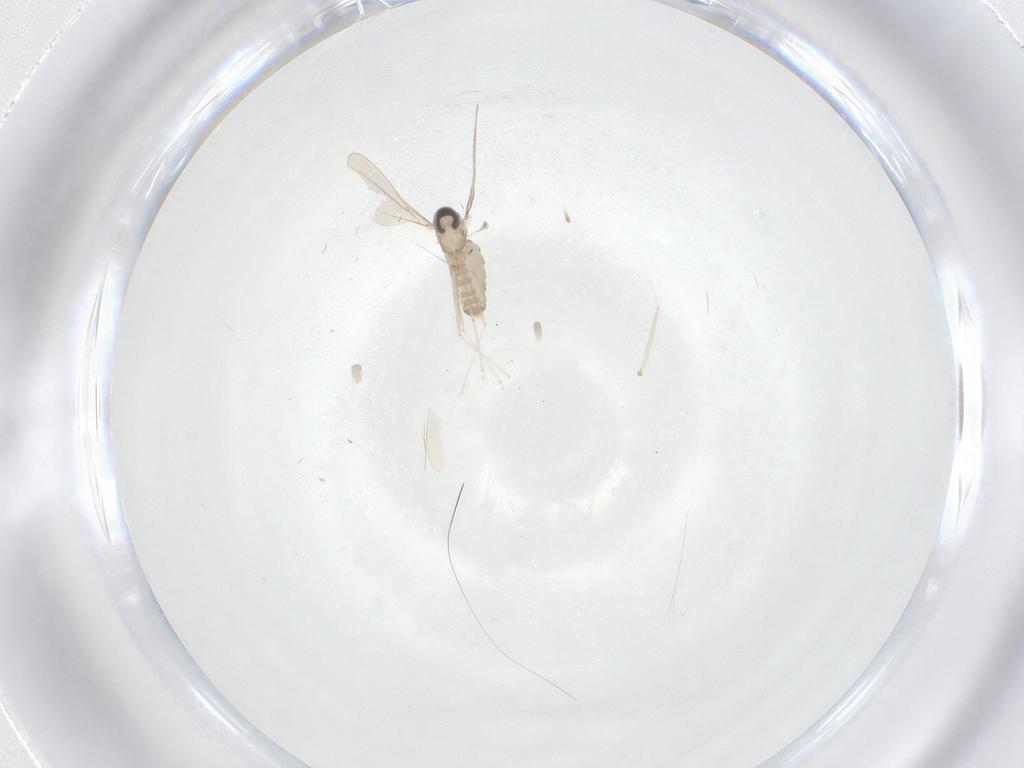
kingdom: Animalia
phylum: Arthropoda
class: Insecta
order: Diptera
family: Cecidomyiidae
